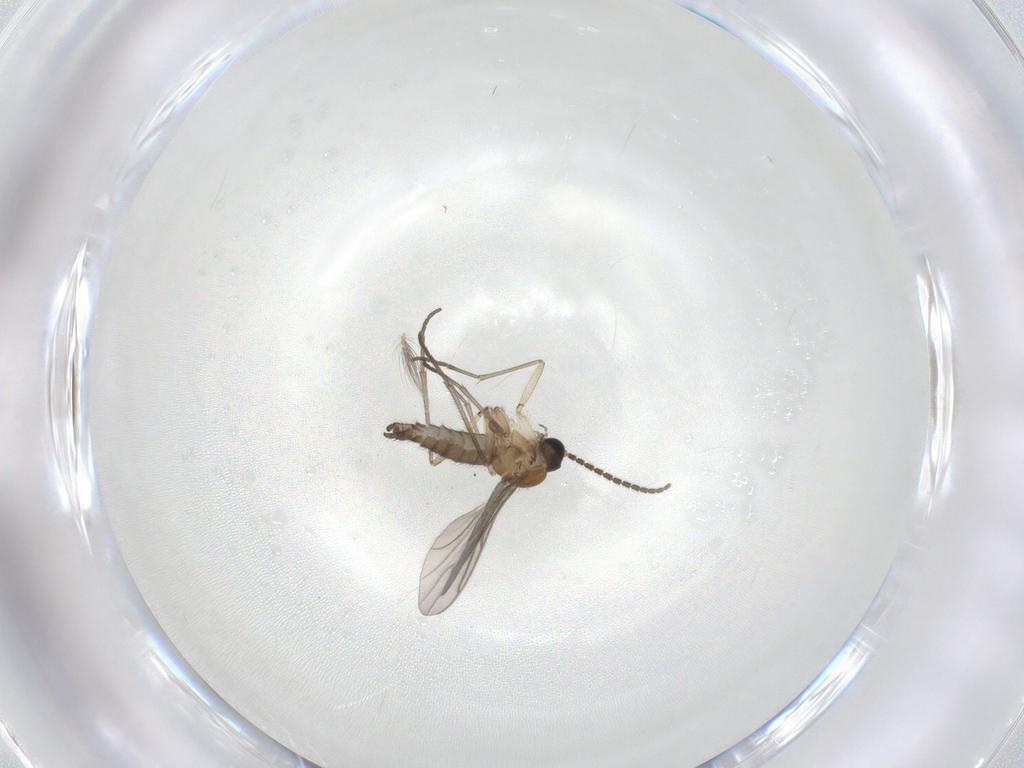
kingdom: Animalia
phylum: Arthropoda
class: Insecta
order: Diptera
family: Sciaridae
